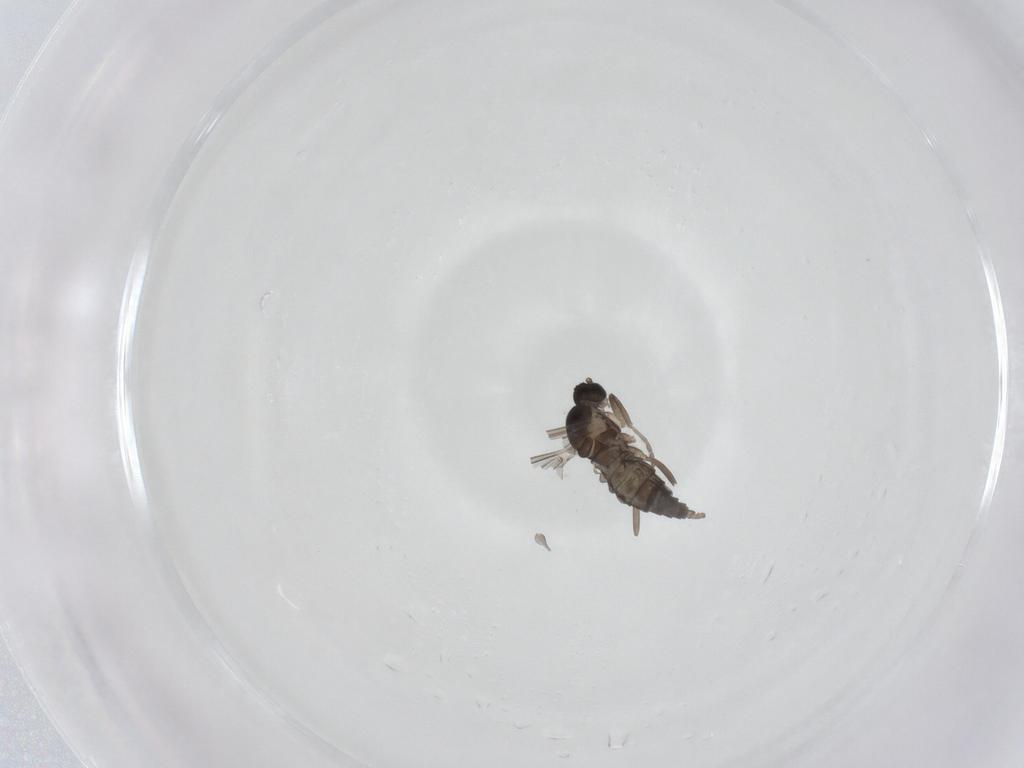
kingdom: Animalia
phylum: Arthropoda
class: Insecta
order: Diptera
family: Cecidomyiidae
